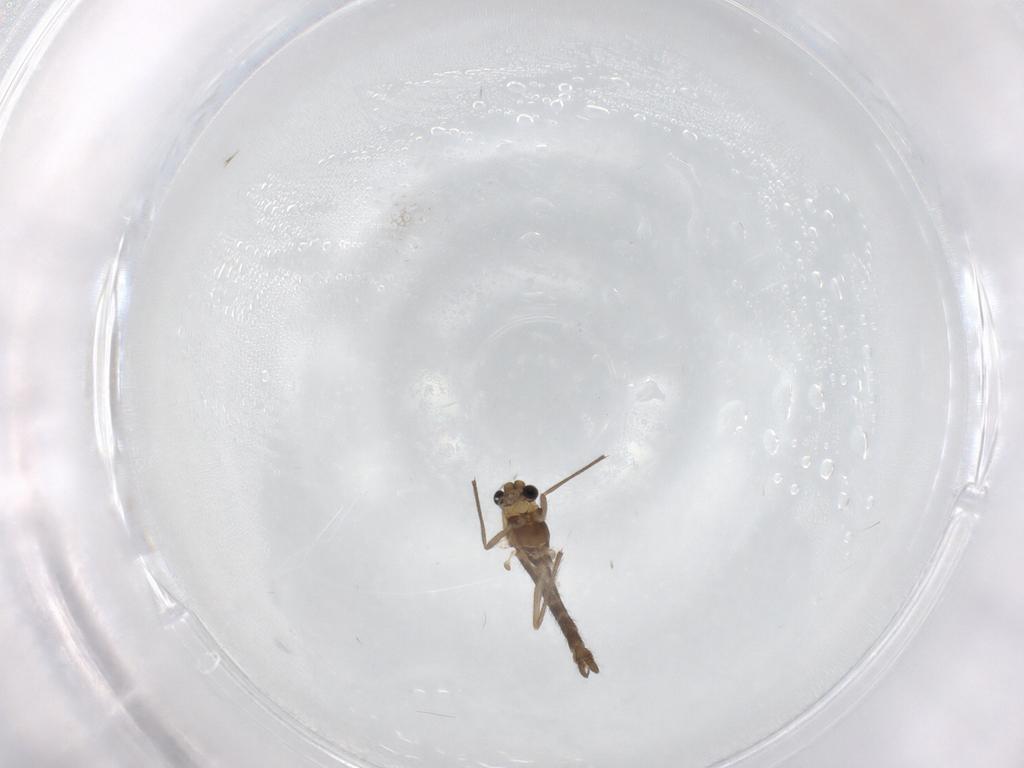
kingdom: Animalia
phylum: Arthropoda
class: Insecta
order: Diptera
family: Chironomidae
